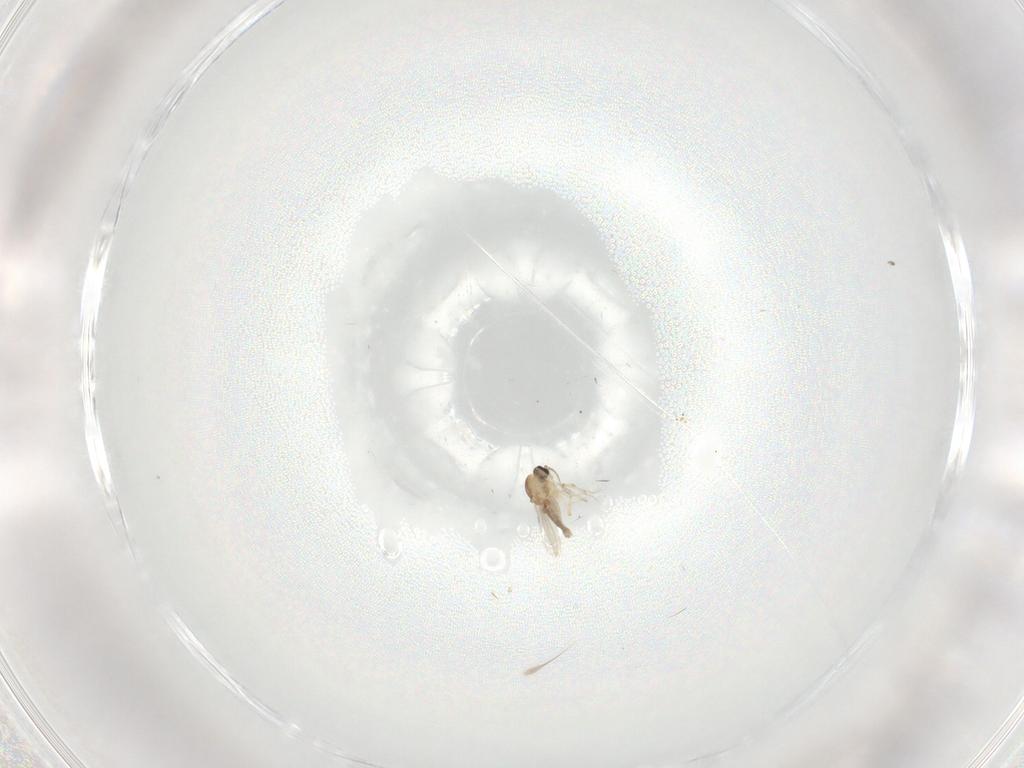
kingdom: Animalia
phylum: Arthropoda
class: Insecta
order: Diptera
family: Ceratopogonidae
